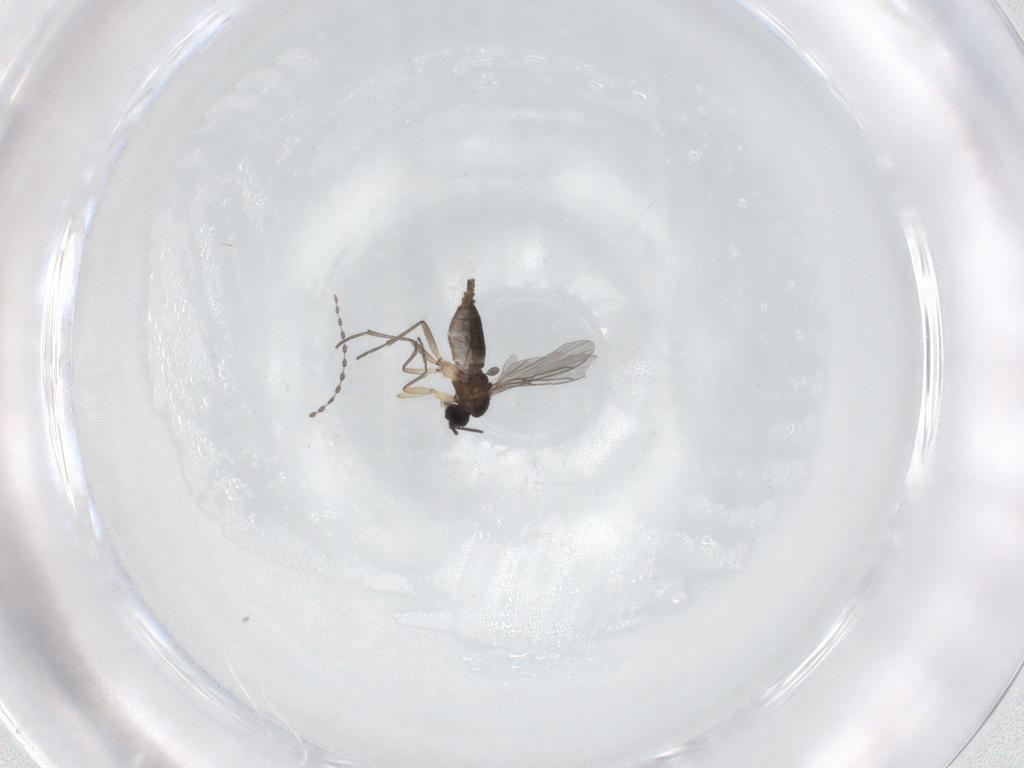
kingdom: Animalia
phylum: Arthropoda
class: Insecta
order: Diptera
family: Sciaridae
